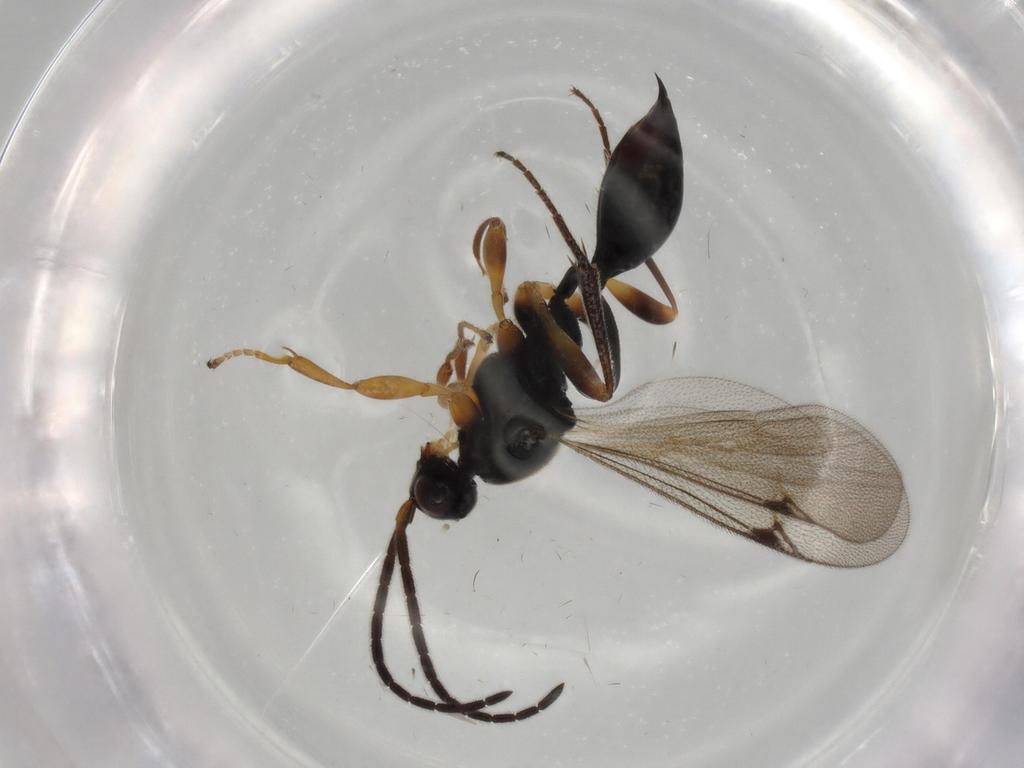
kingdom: Animalia
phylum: Arthropoda
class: Insecta
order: Hymenoptera
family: Proctotrupidae
